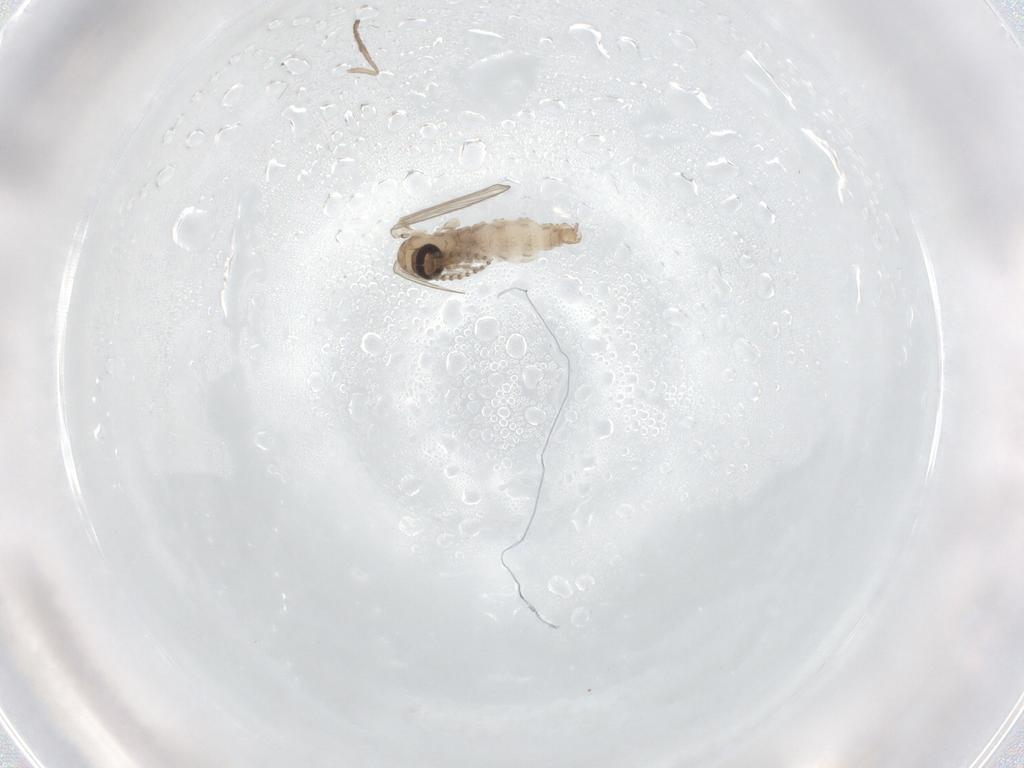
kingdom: Animalia
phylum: Arthropoda
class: Insecta
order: Diptera
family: Psychodidae
